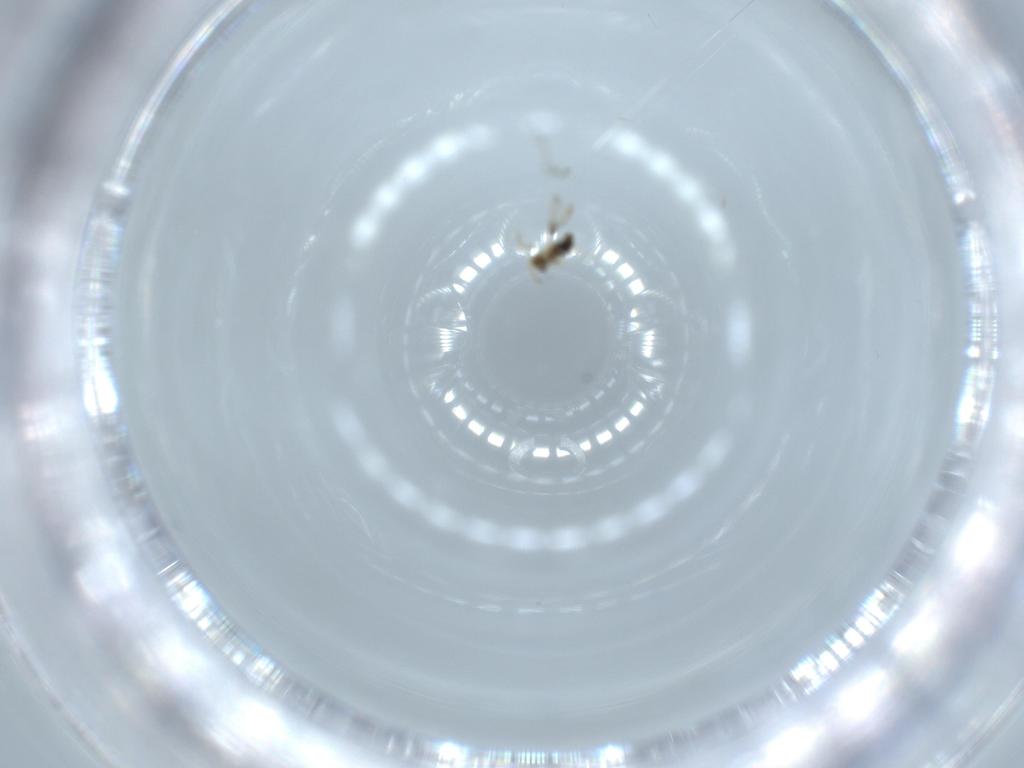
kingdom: Animalia
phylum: Arthropoda
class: Insecta
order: Hymenoptera
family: Aphelinidae
